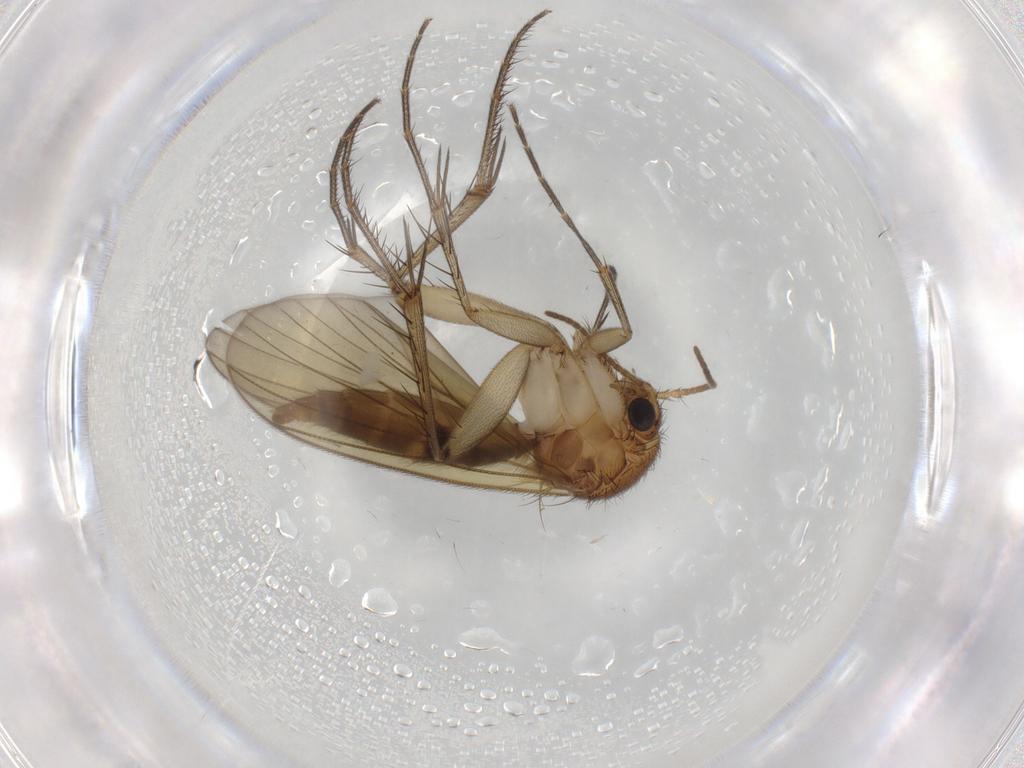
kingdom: Animalia
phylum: Arthropoda
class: Insecta
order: Diptera
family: Mycetophilidae
